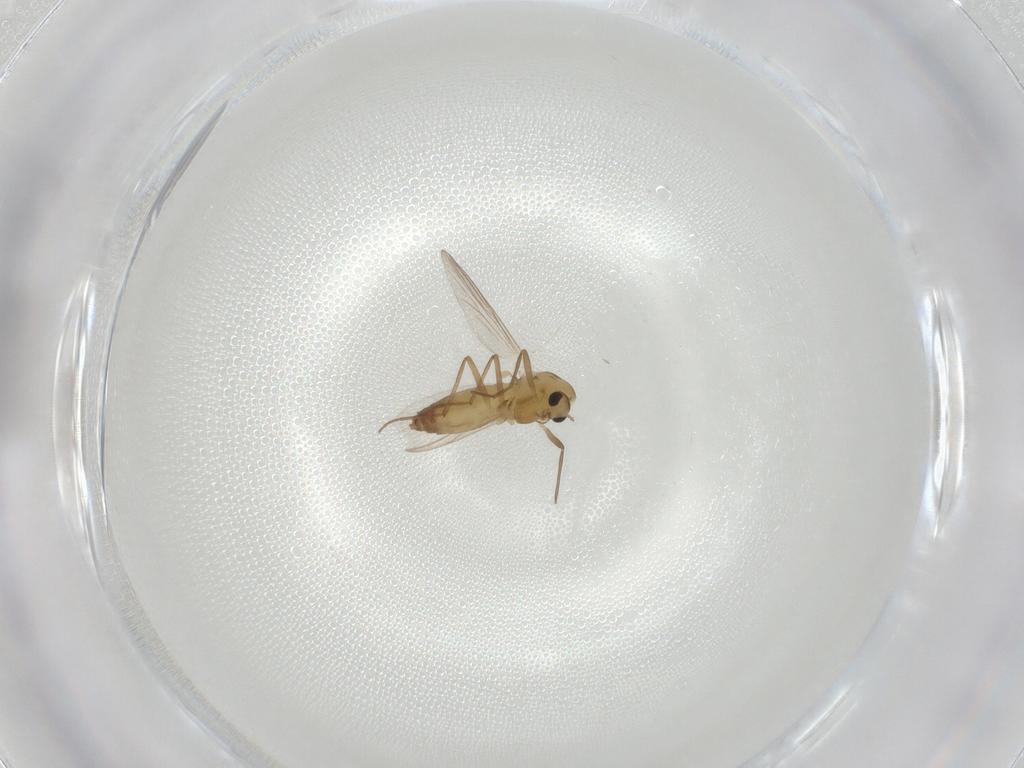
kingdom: Animalia
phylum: Arthropoda
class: Insecta
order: Diptera
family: Chironomidae
